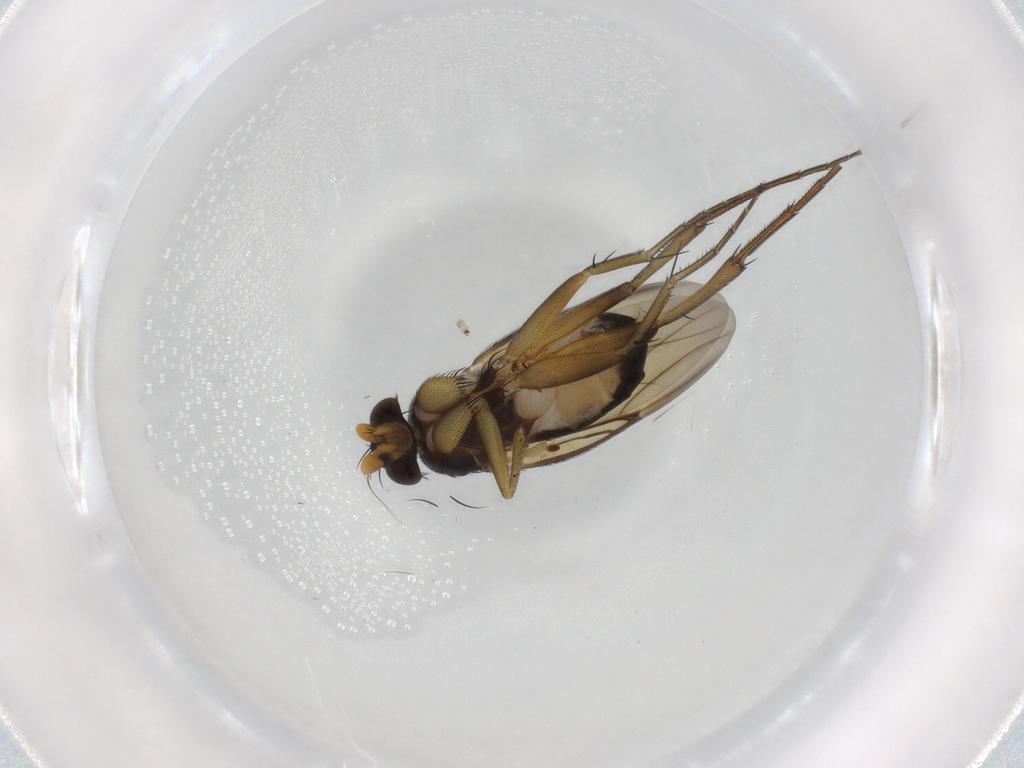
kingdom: Animalia
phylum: Arthropoda
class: Insecta
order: Diptera
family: Phoridae
